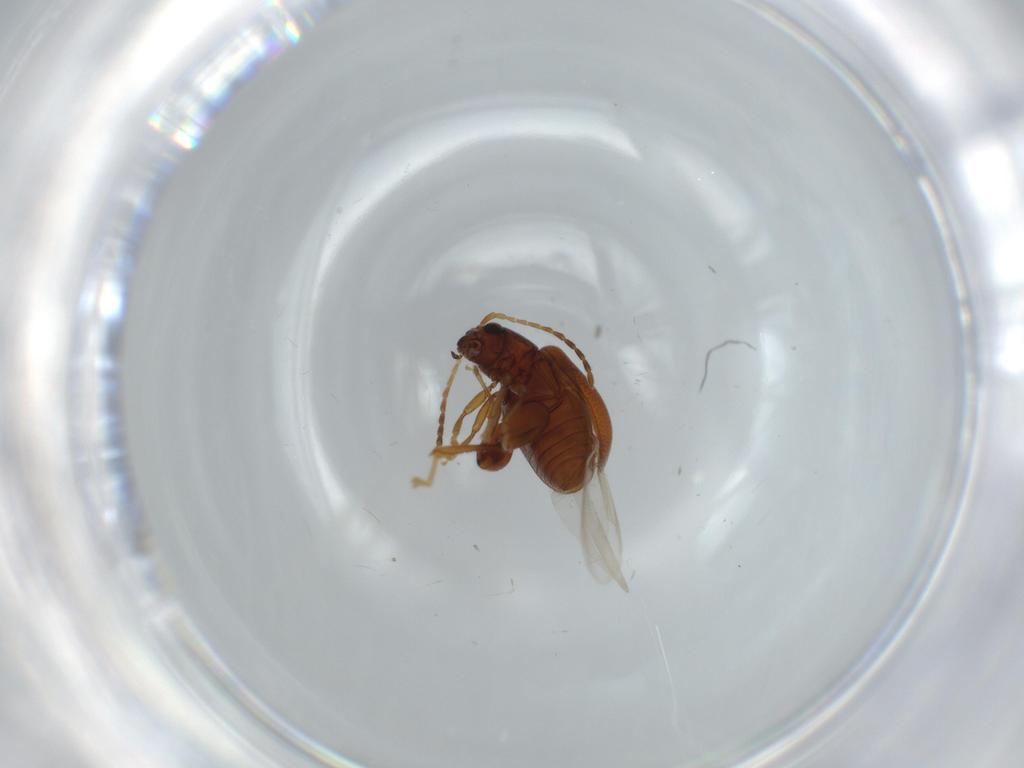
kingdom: Animalia
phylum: Arthropoda
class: Insecta
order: Coleoptera
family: Chrysomelidae
